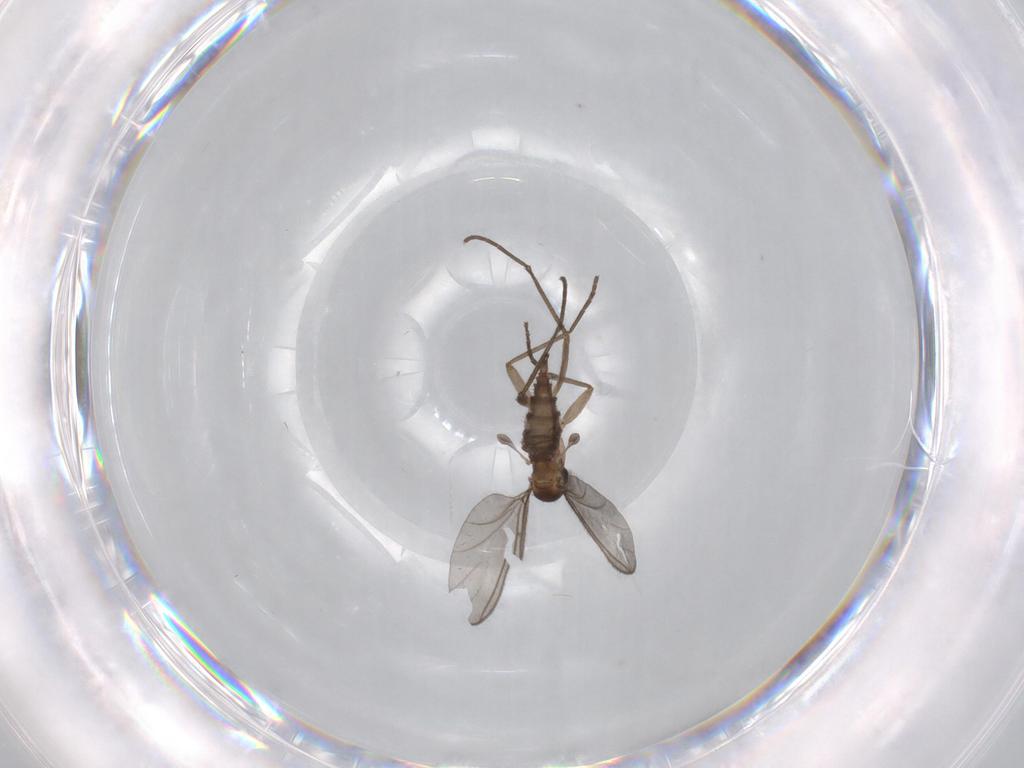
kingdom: Animalia
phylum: Arthropoda
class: Insecta
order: Diptera
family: Sciaridae
